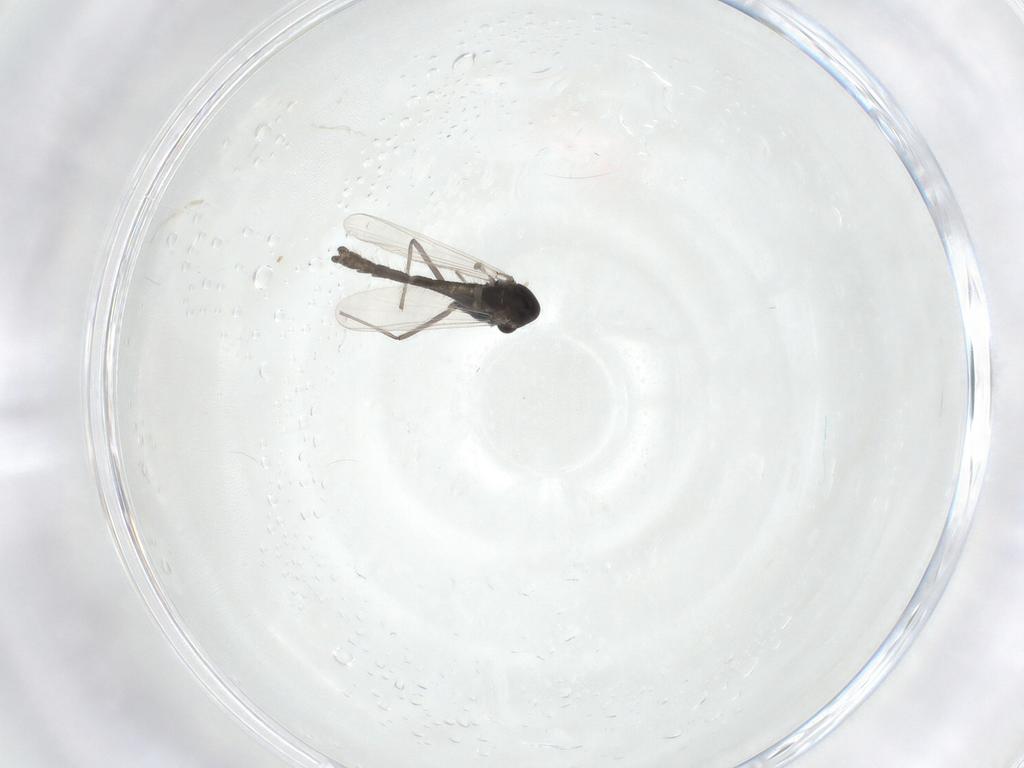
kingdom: Animalia
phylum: Arthropoda
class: Insecta
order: Diptera
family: Chironomidae
